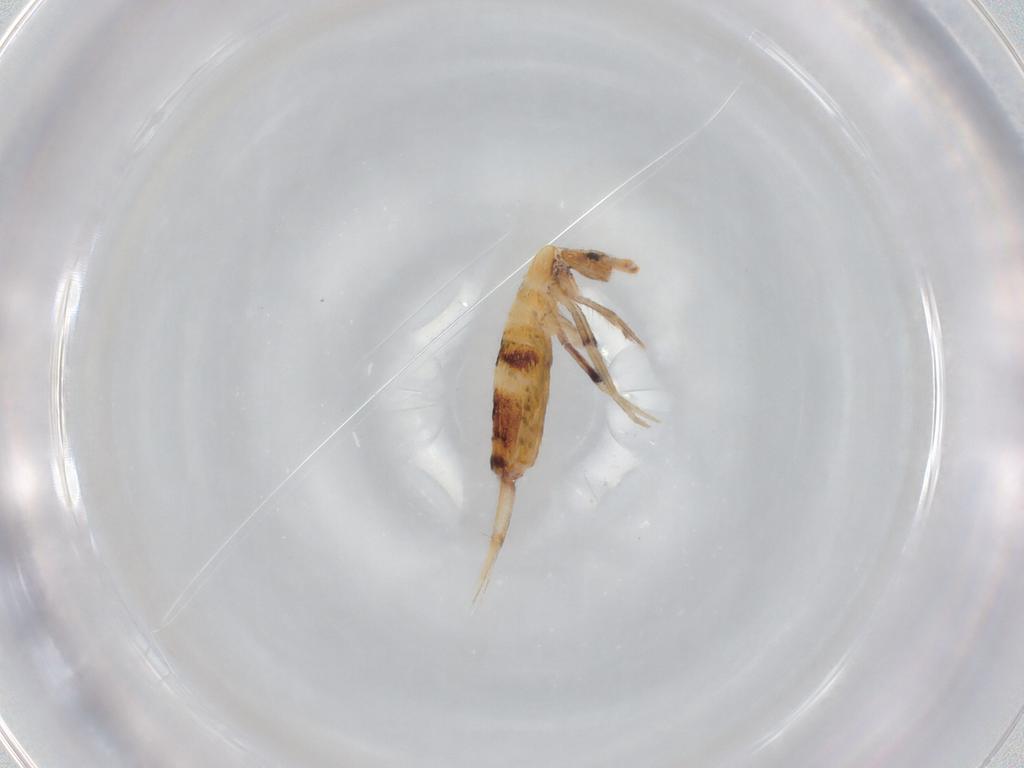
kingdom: Animalia
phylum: Arthropoda
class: Collembola
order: Entomobryomorpha
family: Entomobryidae
